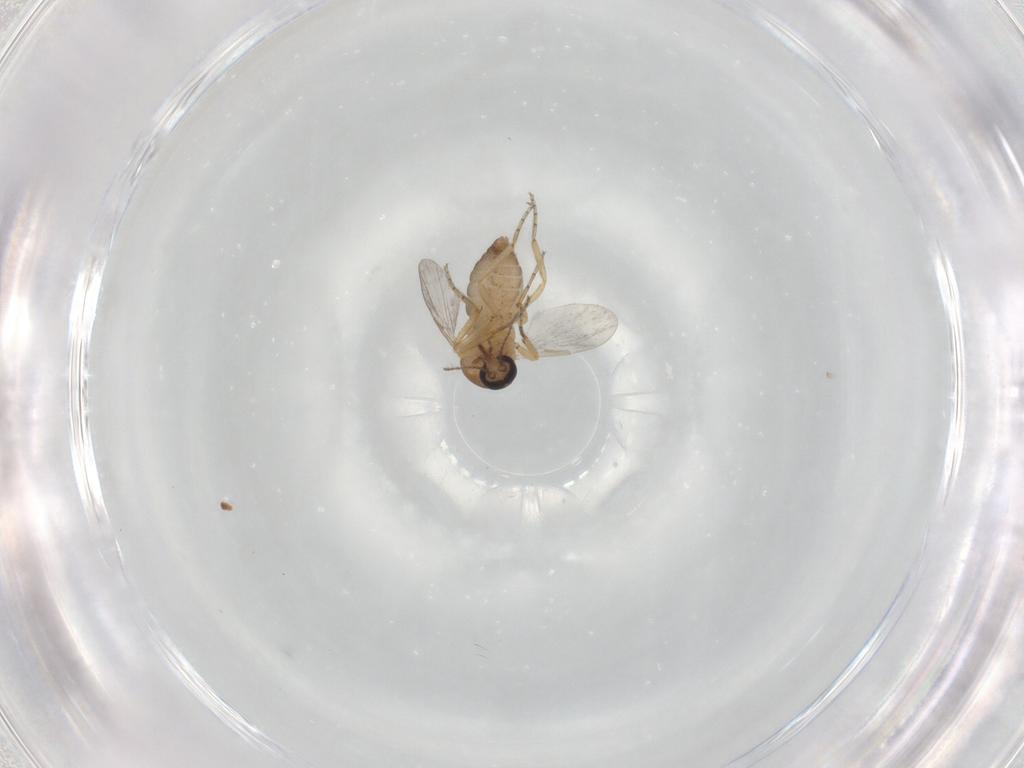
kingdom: Animalia
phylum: Arthropoda
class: Insecta
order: Diptera
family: Ceratopogonidae
